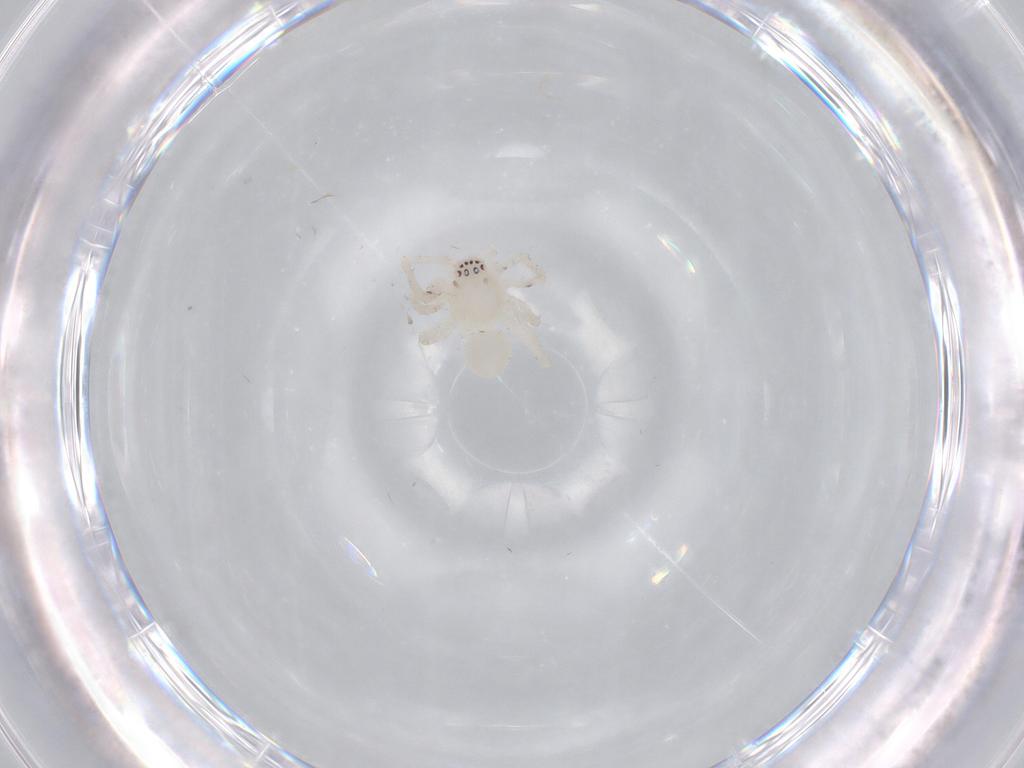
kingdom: Animalia
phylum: Arthropoda
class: Arachnida
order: Araneae
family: Anyphaenidae
